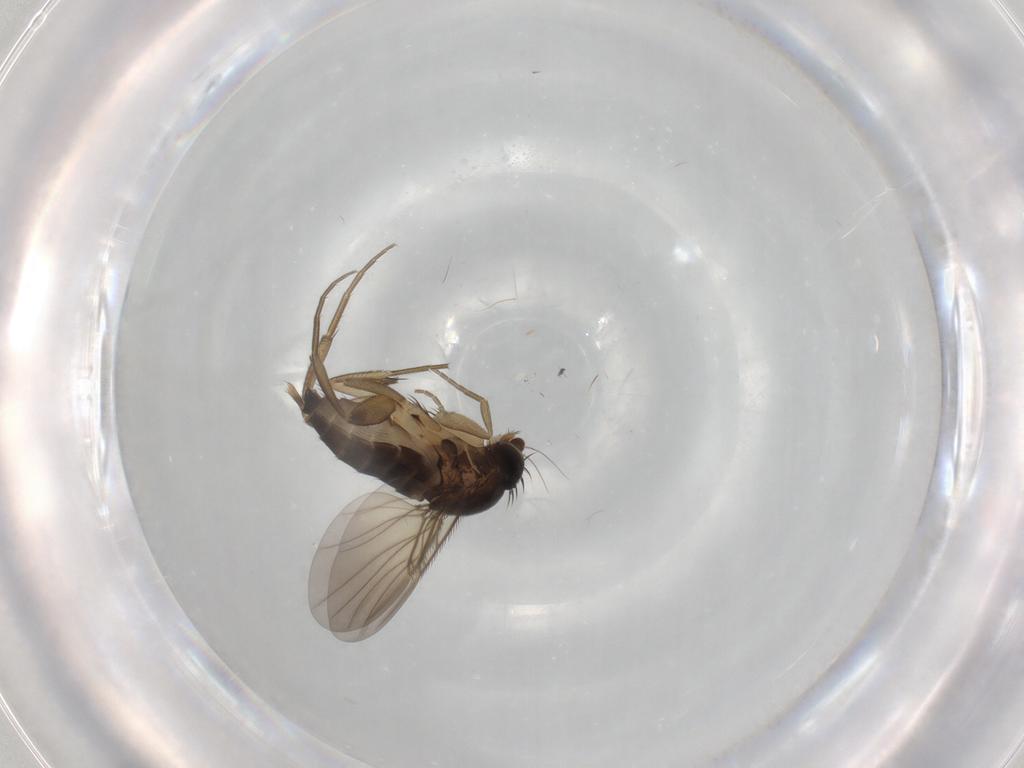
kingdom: Animalia
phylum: Arthropoda
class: Insecta
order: Diptera
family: Phoridae
